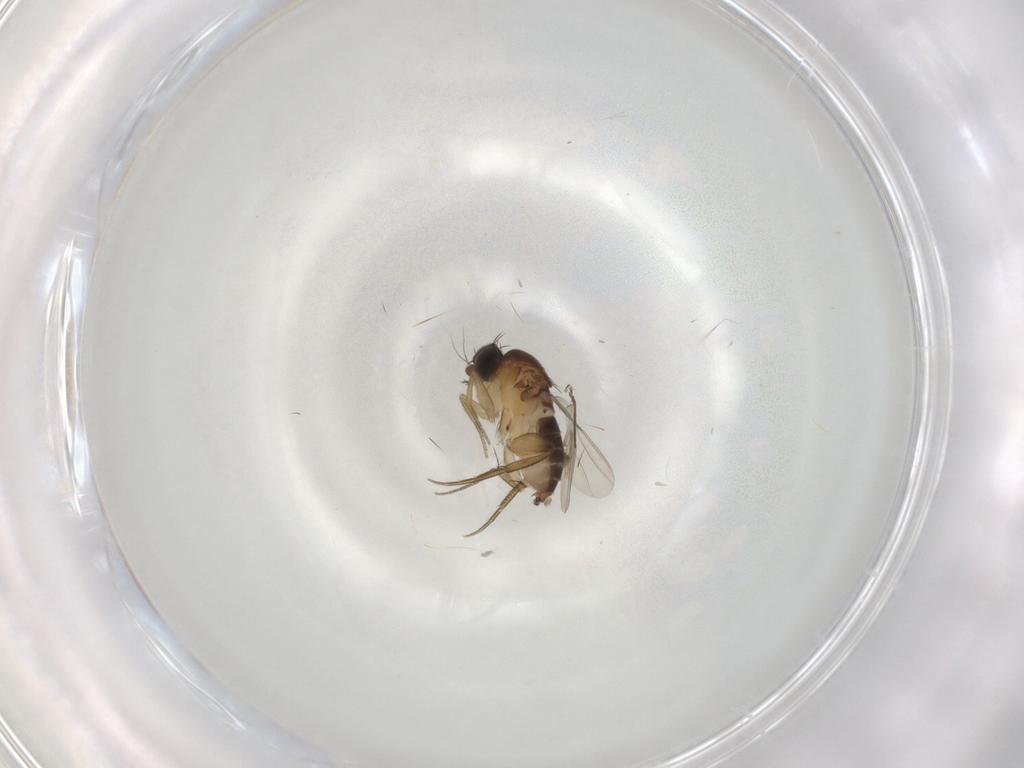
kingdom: Animalia
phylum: Arthropoda
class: Insecta
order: Diptera
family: Phoridae
